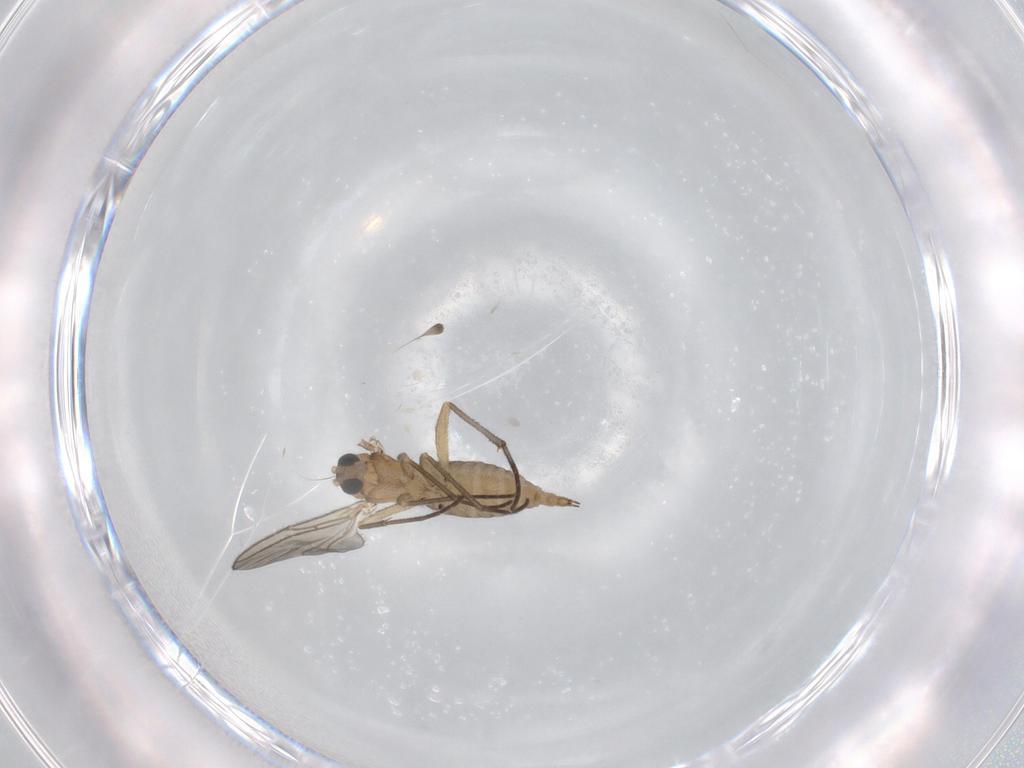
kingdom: Animalia
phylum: Arthropoda
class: Insecta
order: Diptera
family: Sciaridae
